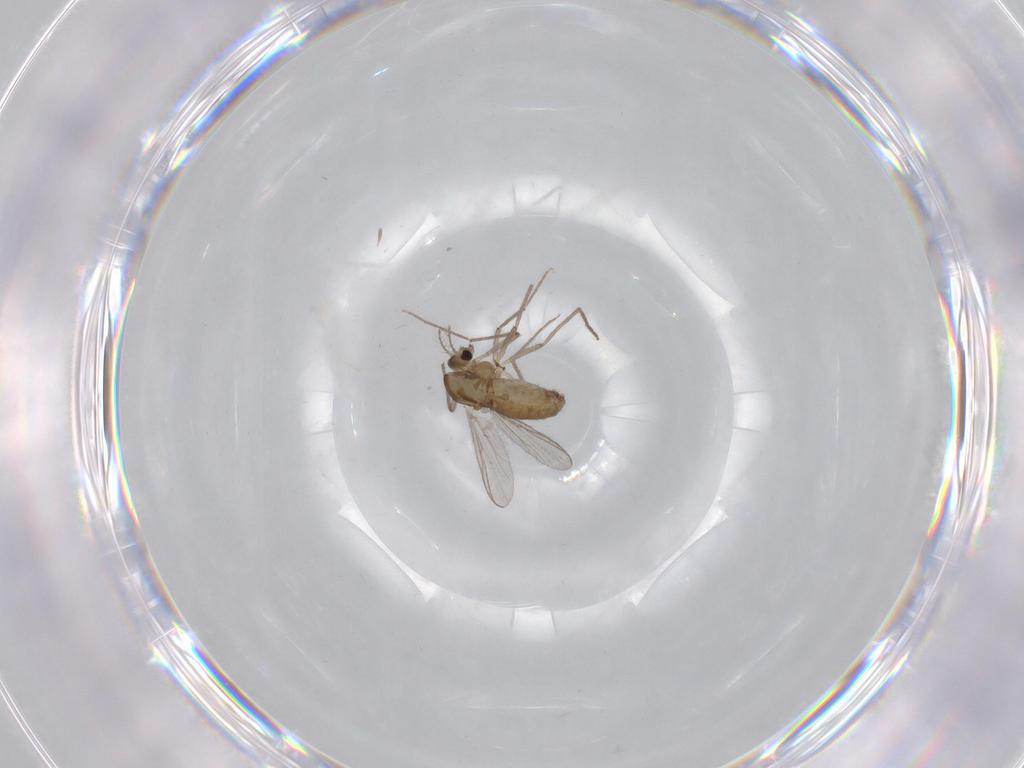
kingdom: Animalia
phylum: Arthropoda
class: Insecta
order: Diptera
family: Chironomidae
